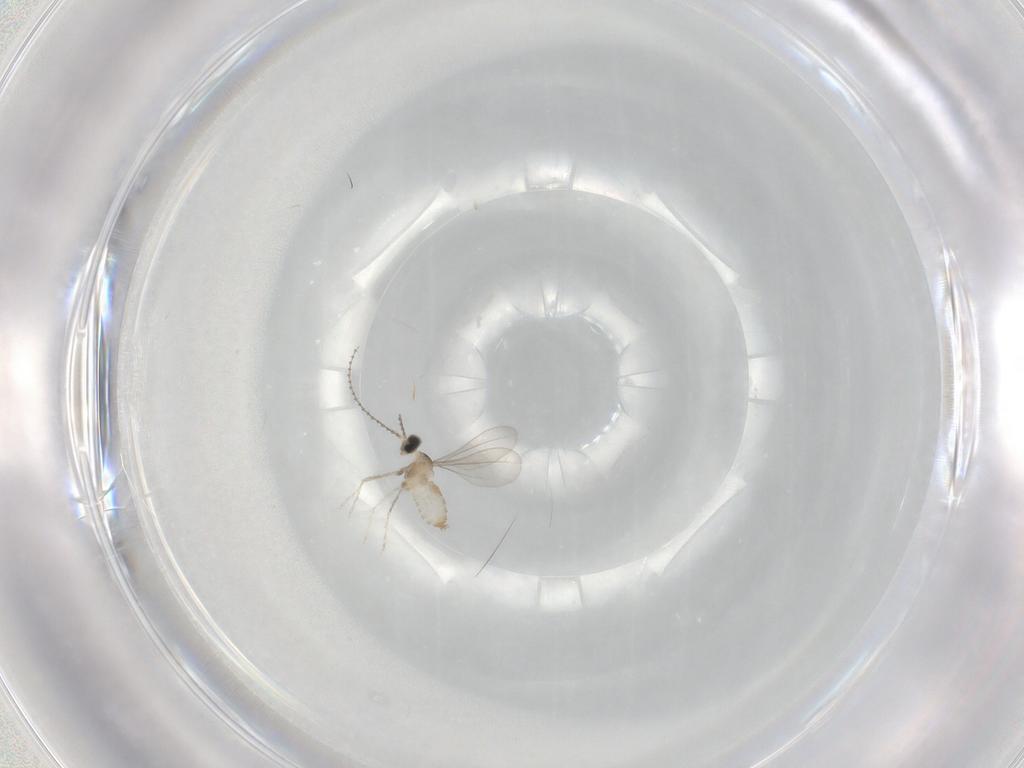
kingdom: Animalia
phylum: Arthropoda
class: Insecta
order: Diptera
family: Cecidomyiidae
